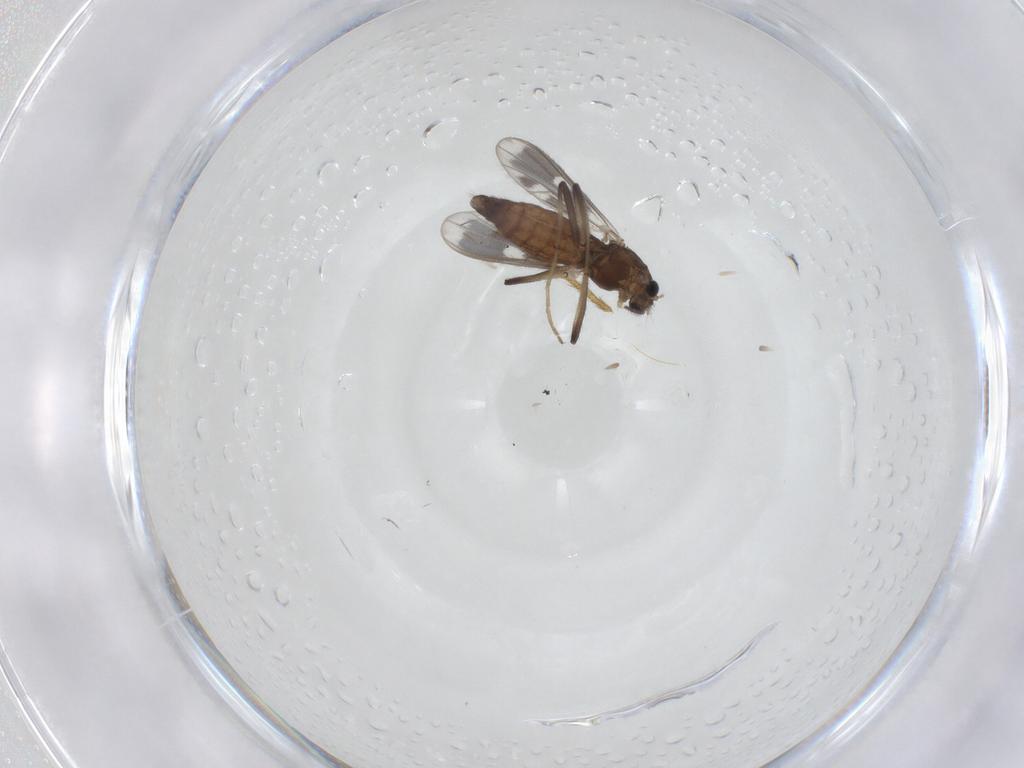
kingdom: Animalia
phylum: Arthropoda
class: Insecta
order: Diptera
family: Chironomidae
